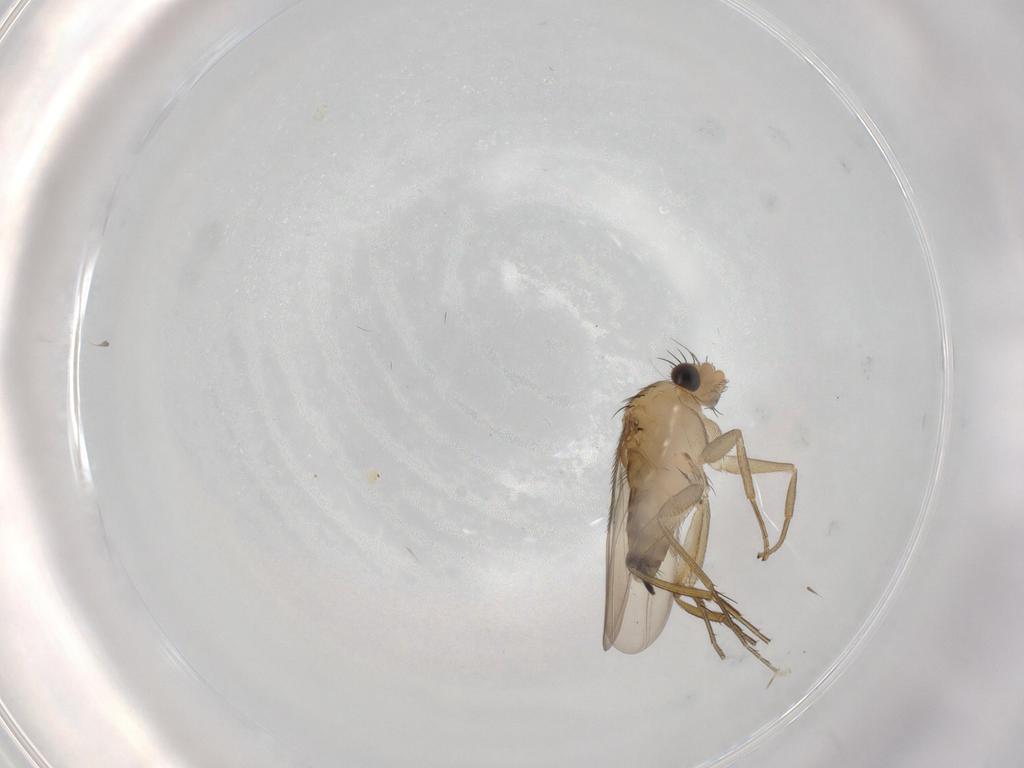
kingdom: Animalia
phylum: Arthropoda
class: Insecta
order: Diptera
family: Phoridae
